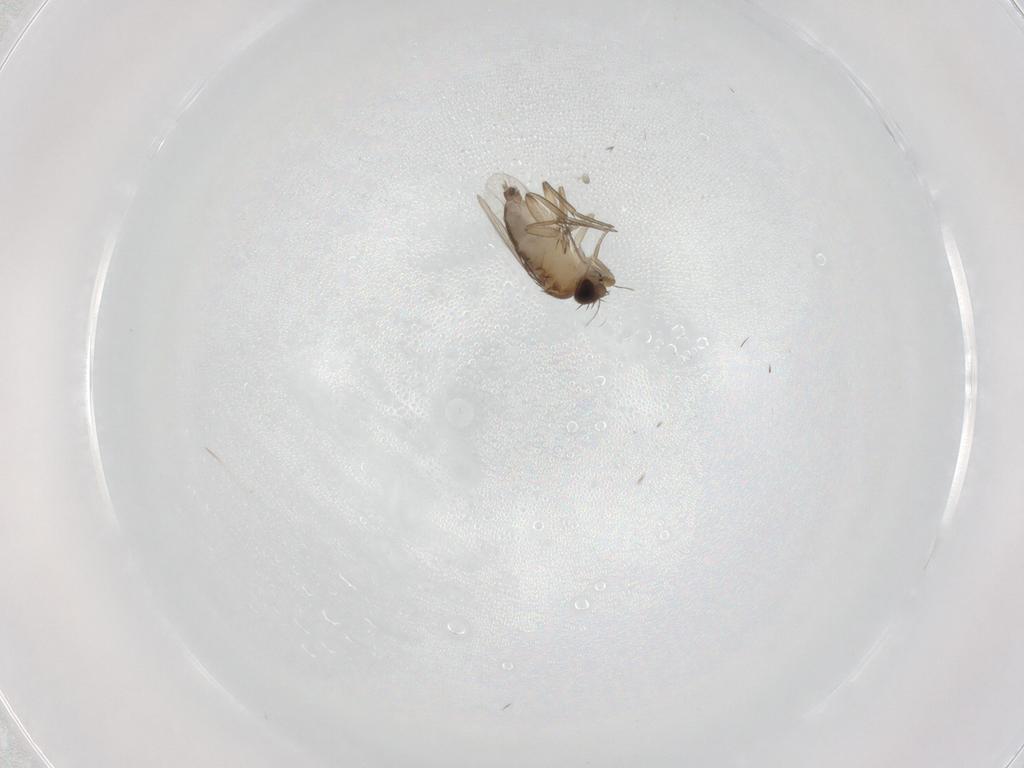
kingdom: Animalia
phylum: Arthropoda
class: Insecta
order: Diptera
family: Phoridae
